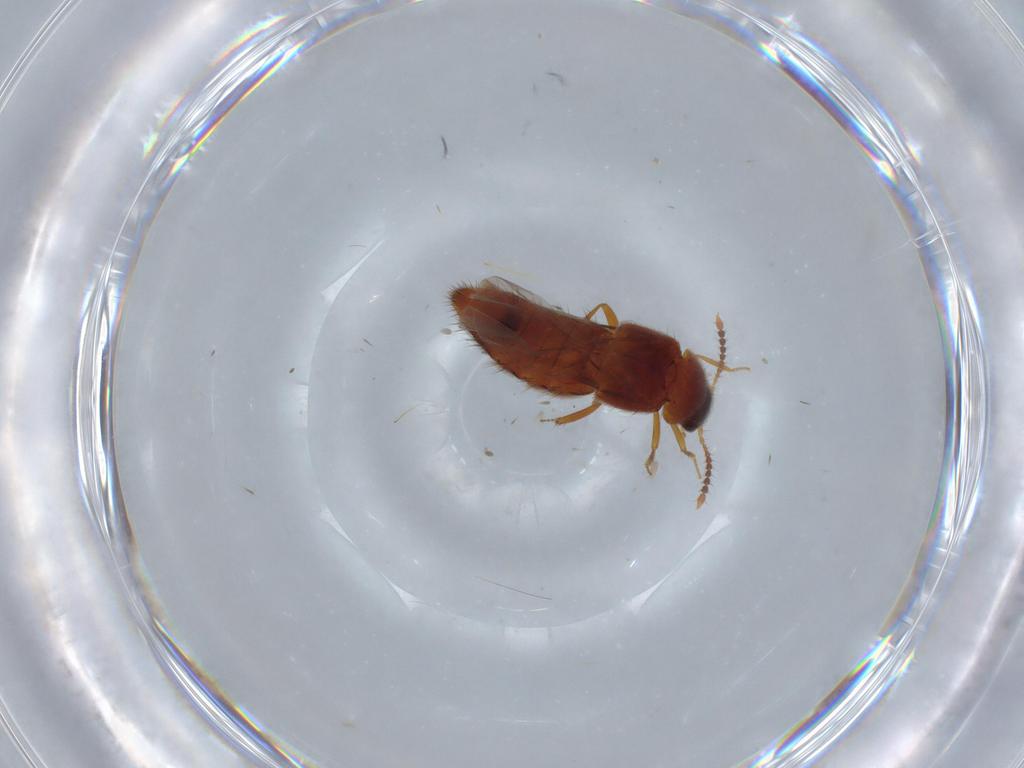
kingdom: Animalia
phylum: Arthropoda
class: Insecta
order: Coleoptera
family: Staphylinidae
